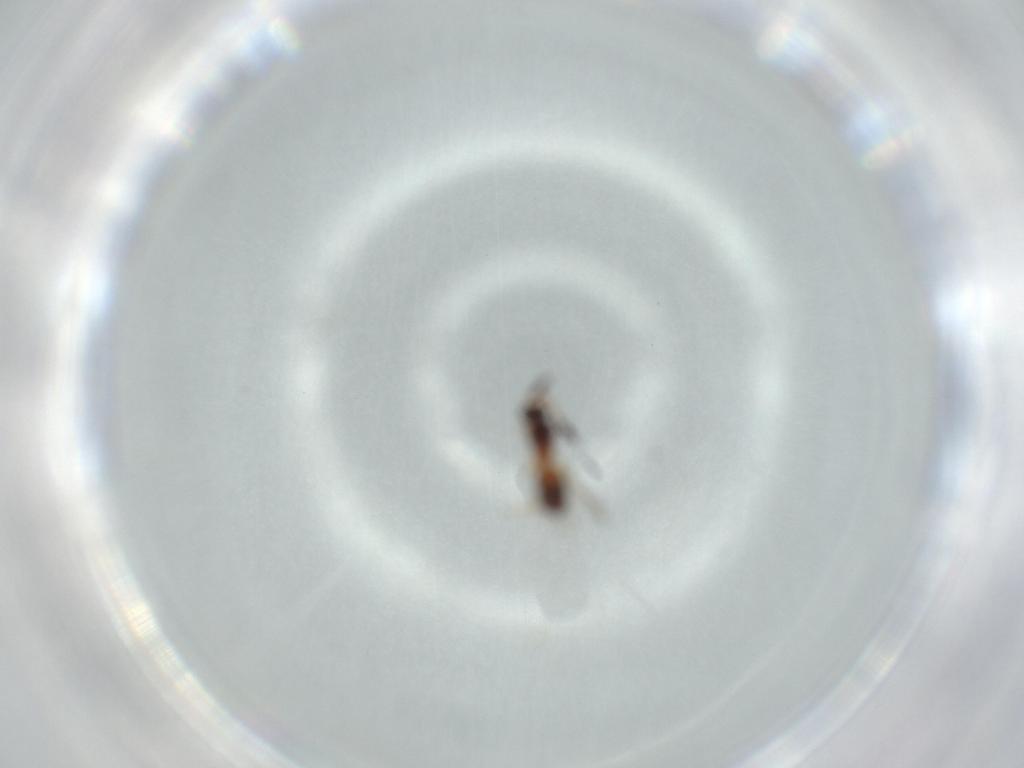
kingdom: Animalia
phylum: Arthropoda
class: Insecta
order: Hymenoptera
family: Diapriidae
